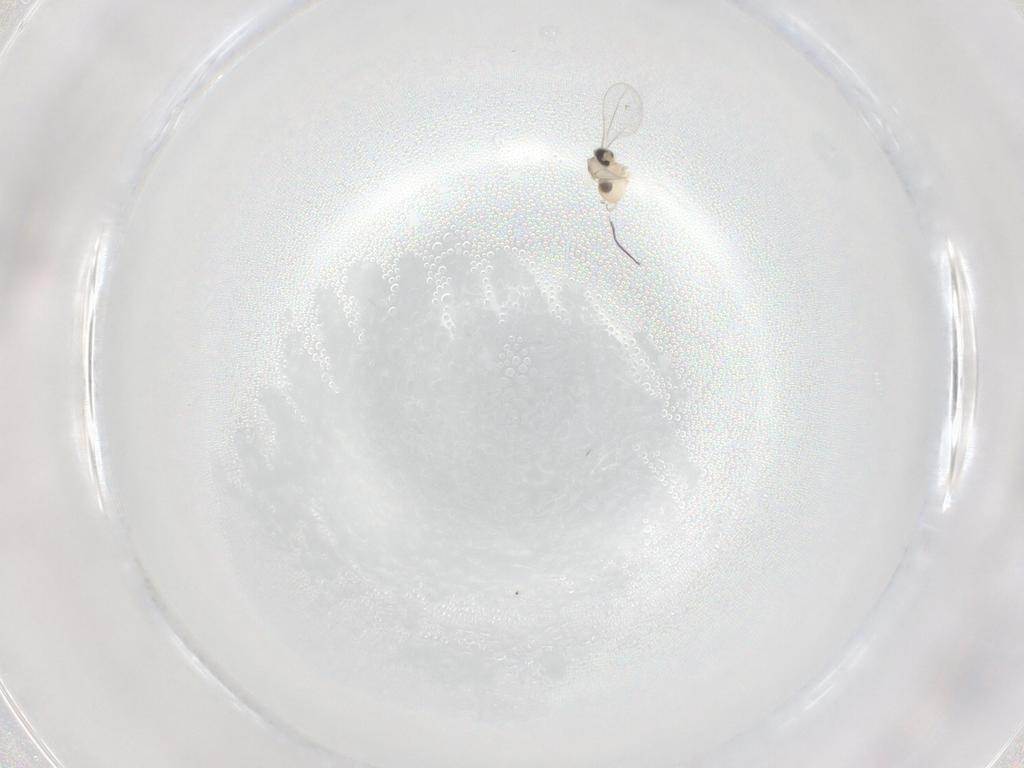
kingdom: Animalia
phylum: Arthropoda
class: Insecta
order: Diptera
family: Cecidomyiidae
